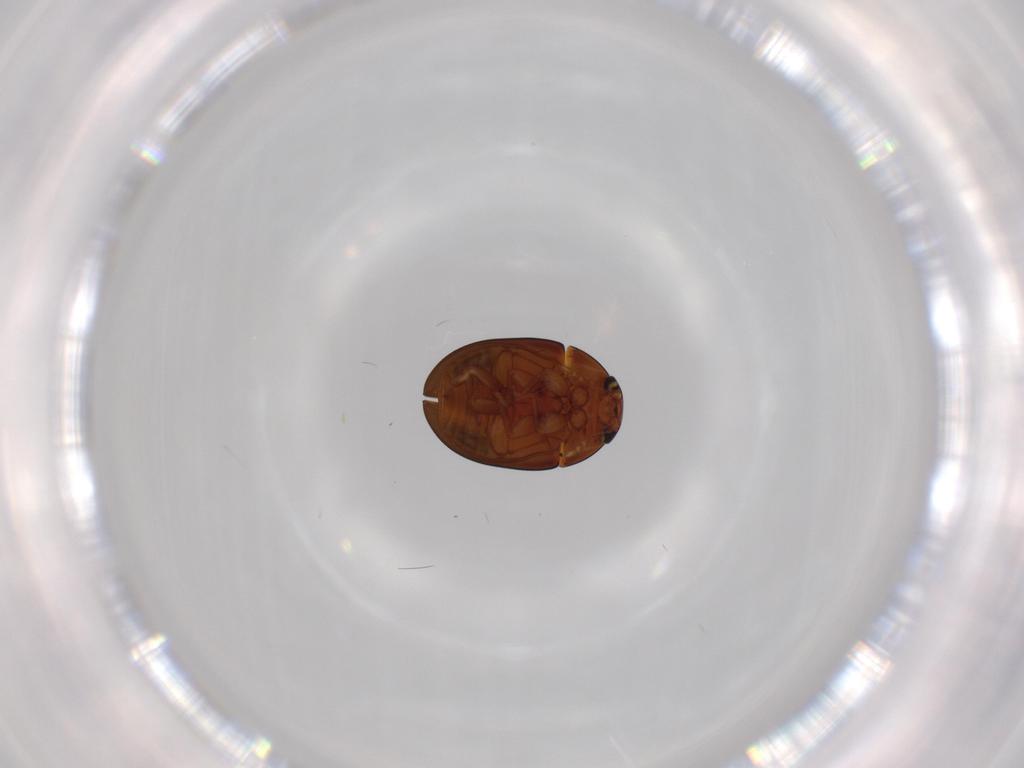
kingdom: Animalia
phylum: Arthropoda
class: Insecta
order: Coleoptera
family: Phalacridae
